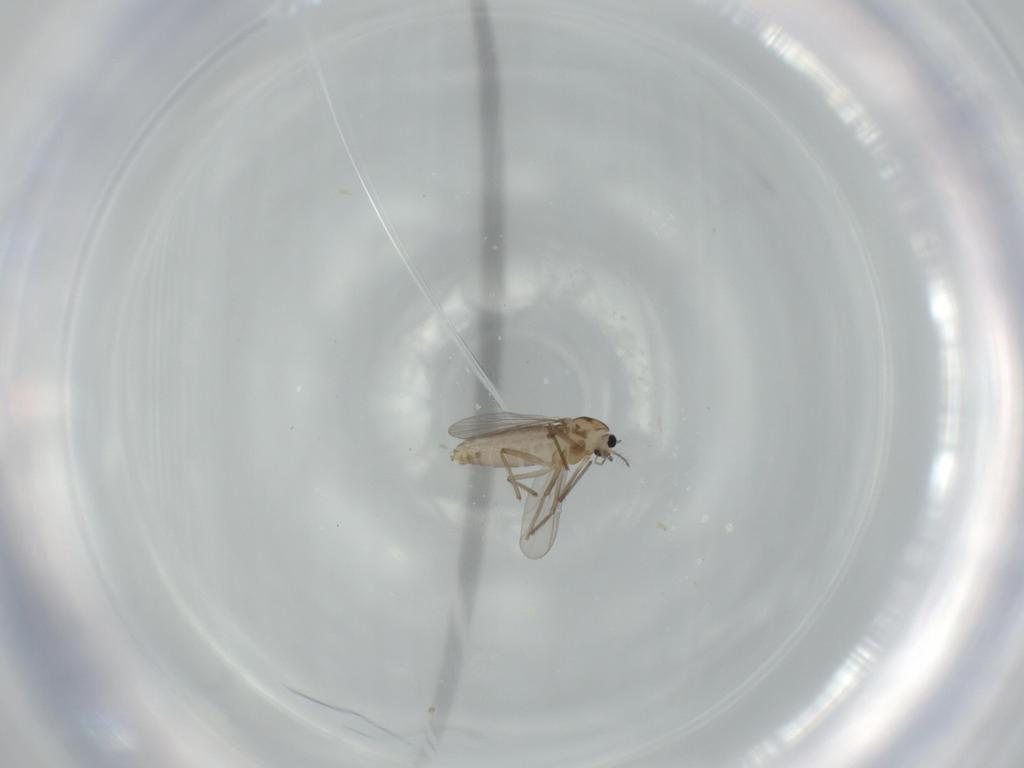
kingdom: Animalia
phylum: Arthropoda
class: Insecta
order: Diptera
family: Chironomidae
